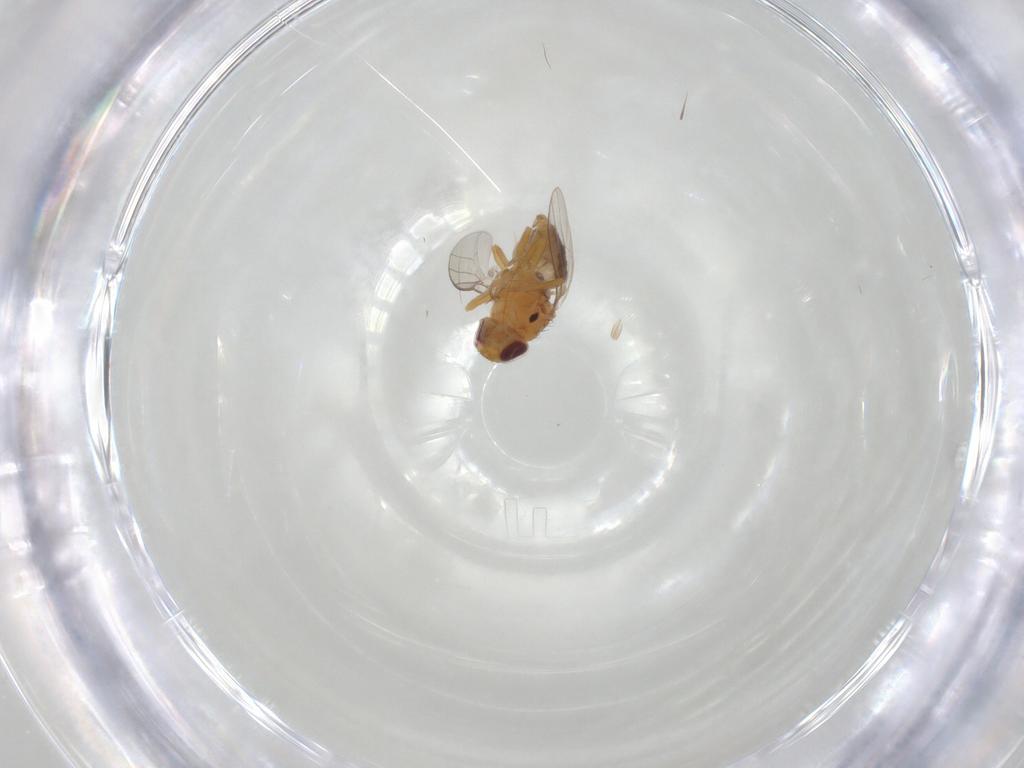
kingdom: Animalia
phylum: Arthropoda
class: Insecta
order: Diptera
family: Chloropidae
